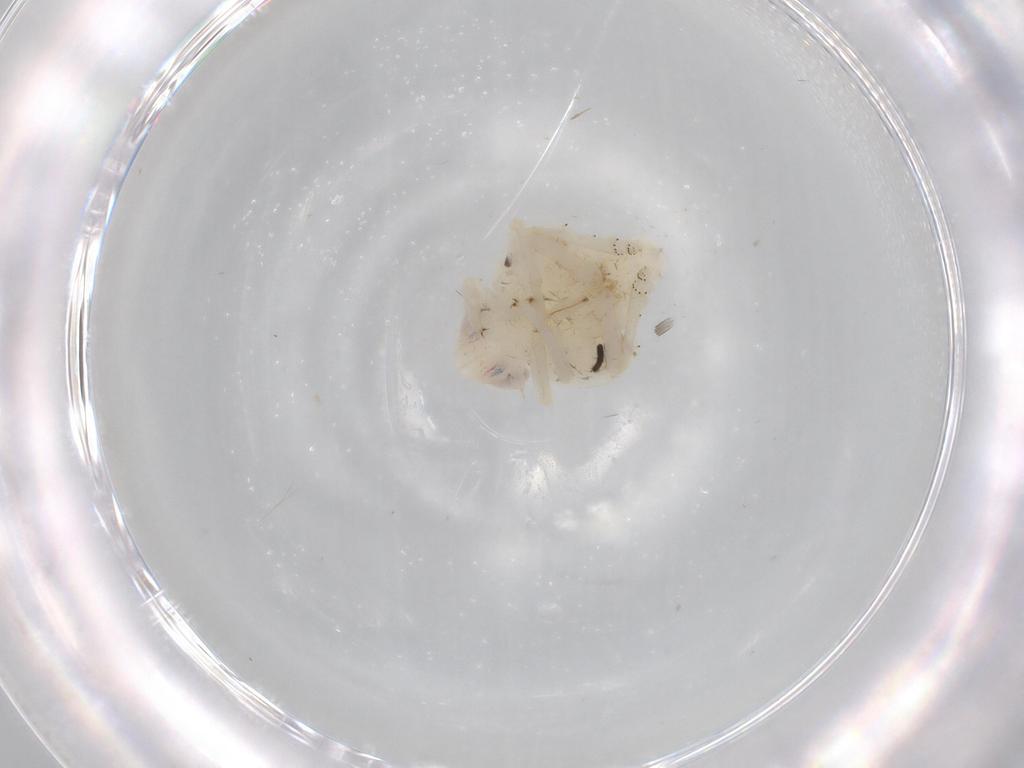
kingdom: Animalia
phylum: Arthropoda
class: Insecta
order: Hemiptera
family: Nogodinidae
